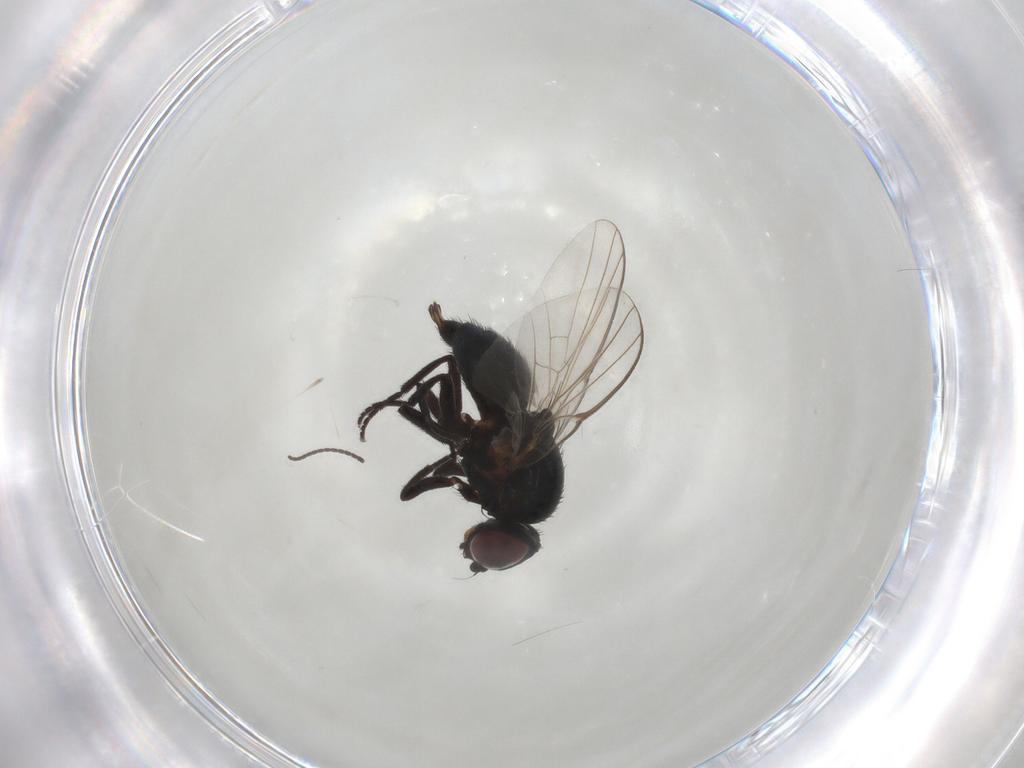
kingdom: Animalia
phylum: Arthropoda
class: Insecta
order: Diptera
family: Agromyzidae
